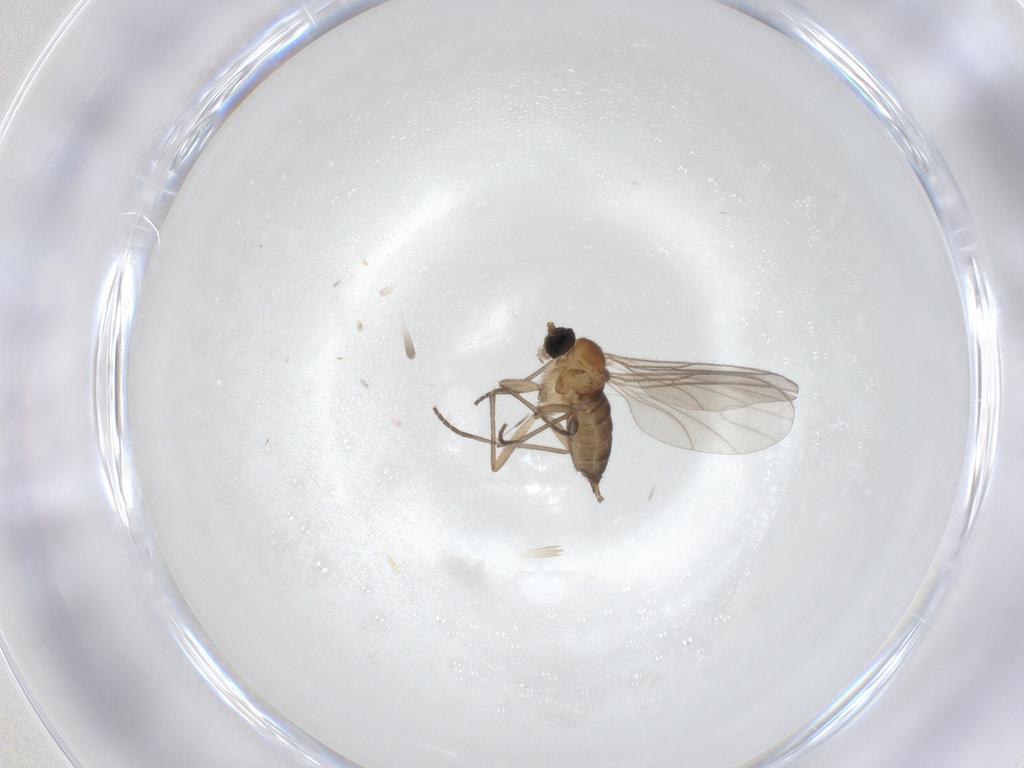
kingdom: Animalia
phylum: Arthropoda
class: Insecta
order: Diptera
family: Sciaridae
